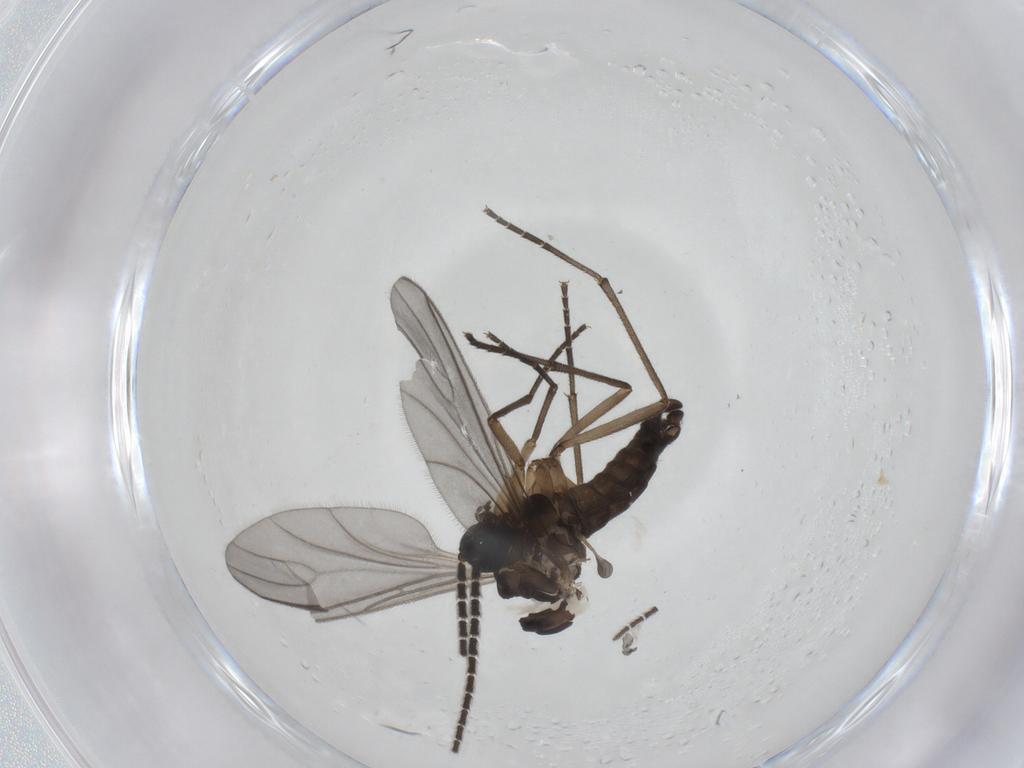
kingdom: Animalia
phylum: Arthropoda
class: Insecta
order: Diptera
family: Sciaridae
